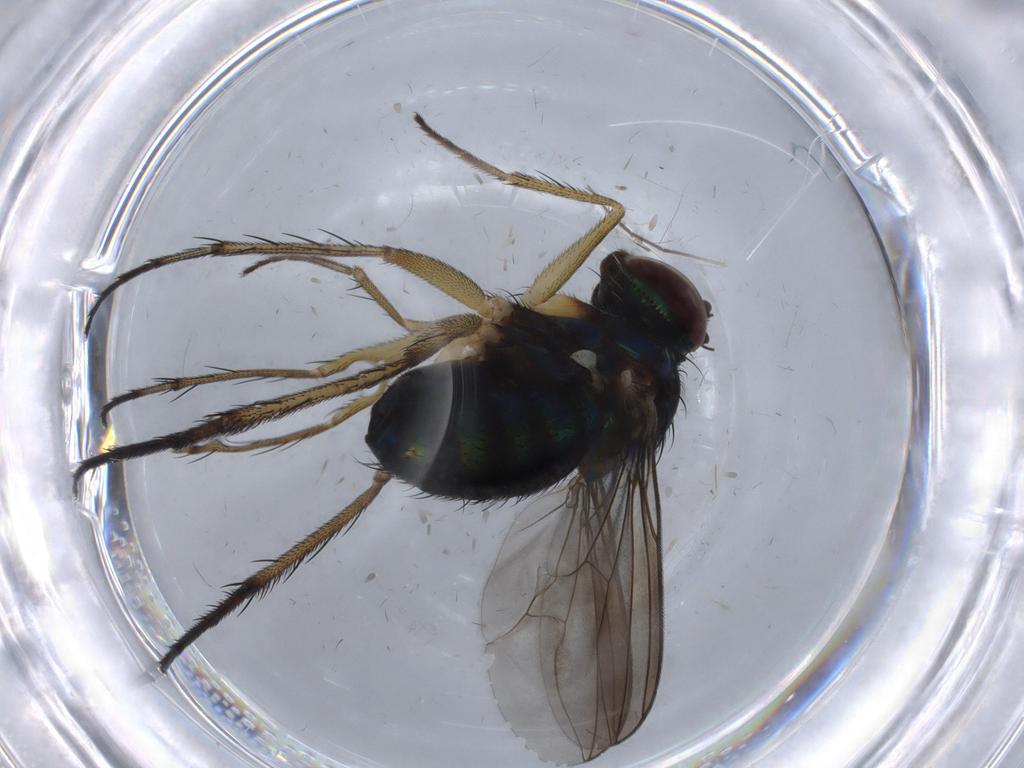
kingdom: Animalia
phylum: Arthropoda
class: Insecta
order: Diptera
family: Dolichopodidae
